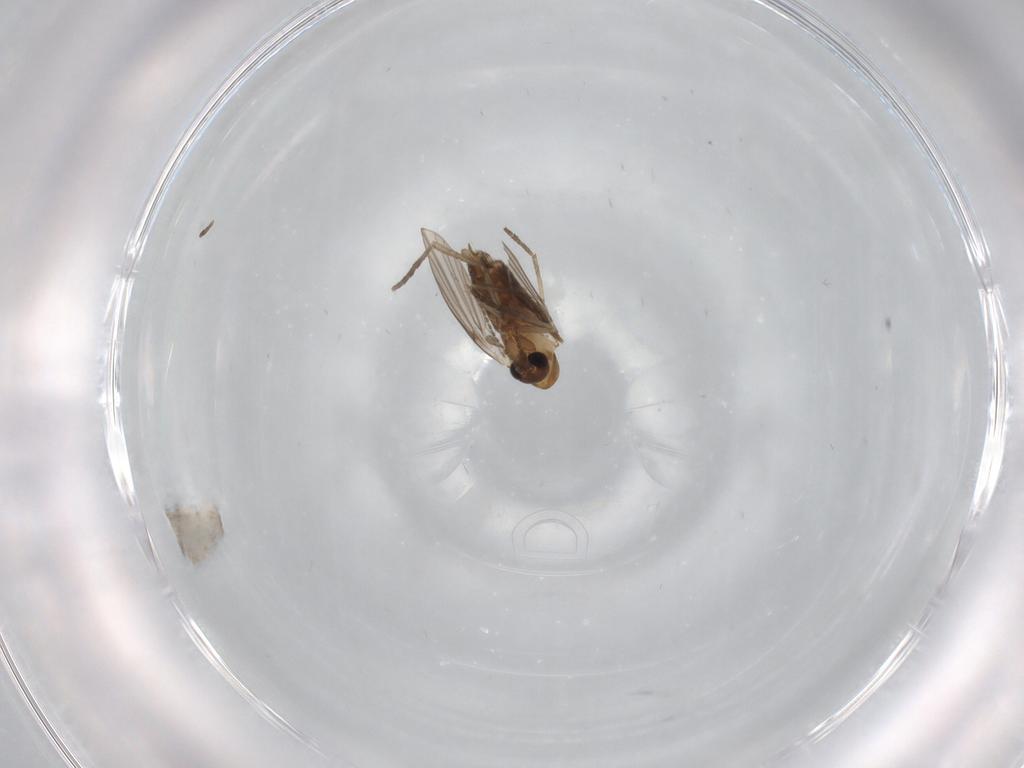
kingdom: Animalia
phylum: Arthropoda
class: Insecta
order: Diptera
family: Psychodidae
